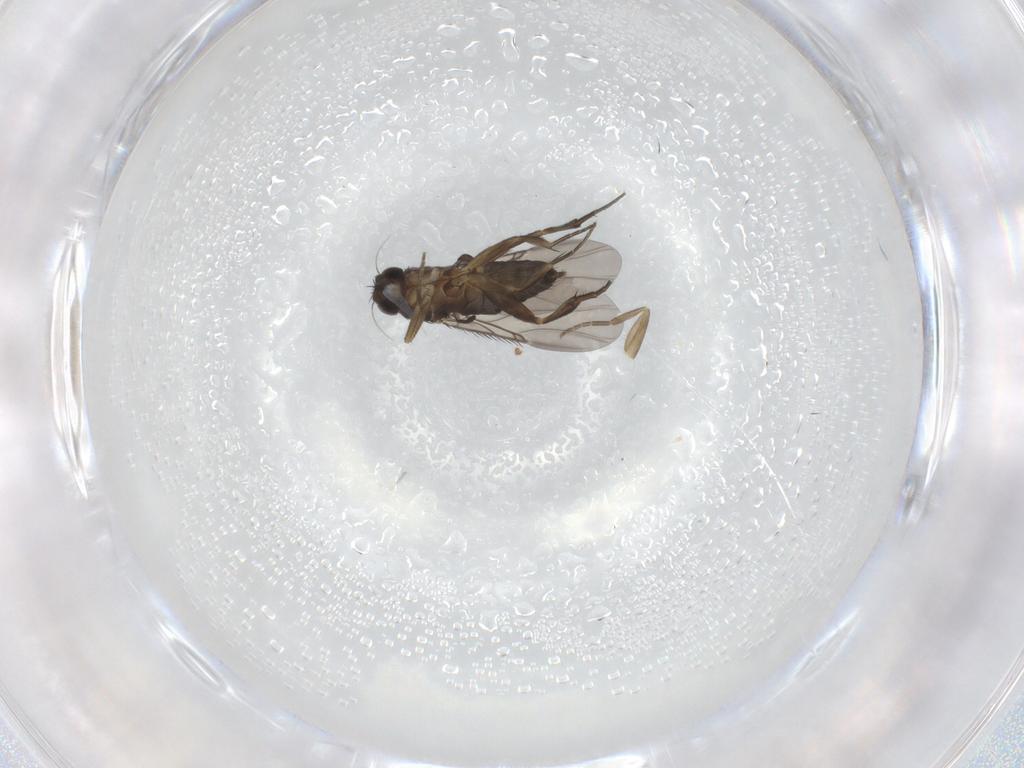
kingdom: Animalia
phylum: Arthropoda
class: Insecta
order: Diptera
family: Phoridae
